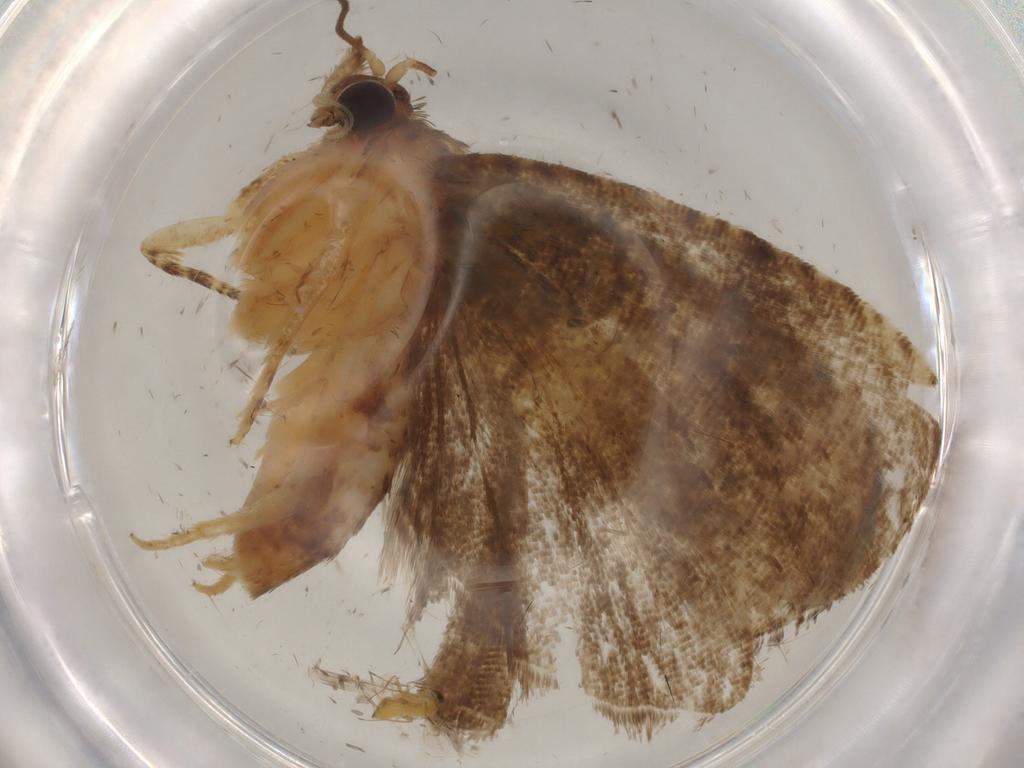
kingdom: Animalia
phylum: Arthropoda
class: Insecta
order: Lepidoptera
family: Tortricidae
